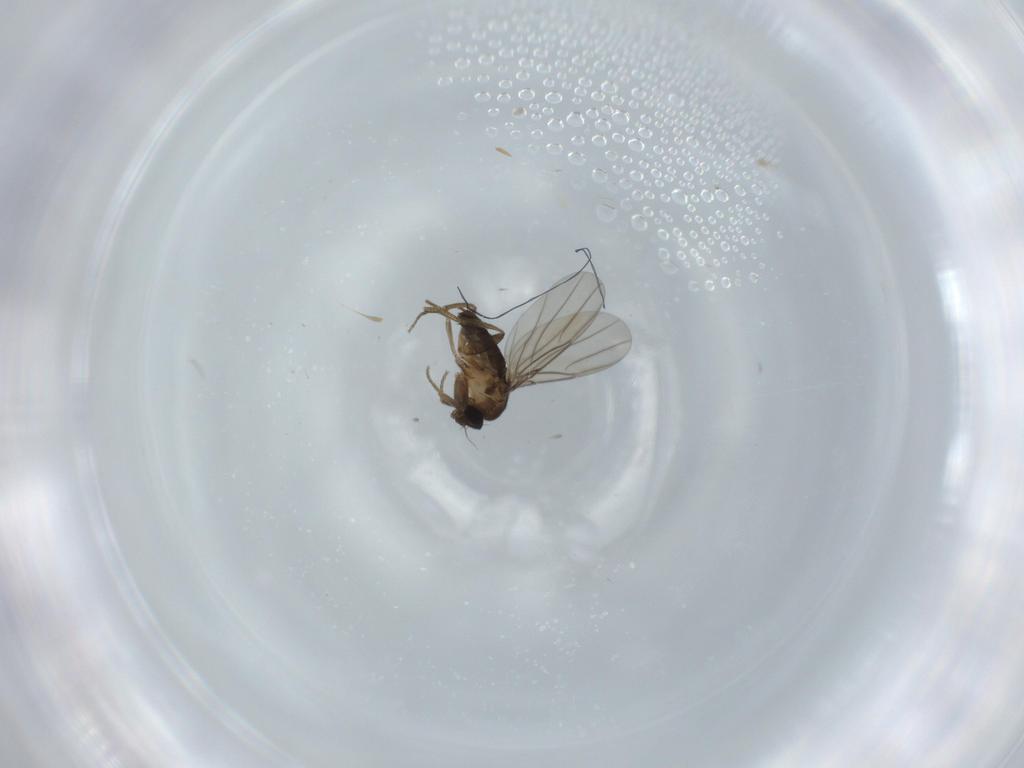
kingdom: Animalia
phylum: Arthropoda
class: Insecta
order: Diptera
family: Phoridae
